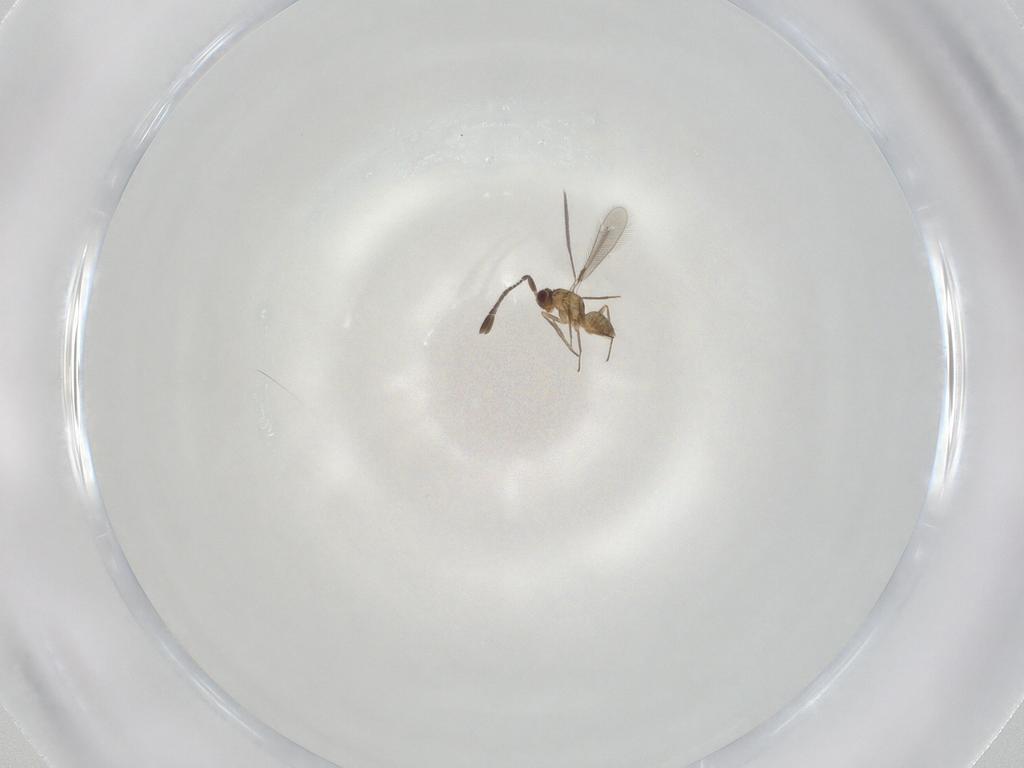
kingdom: Animalia
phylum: Arthropoda
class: Insecta
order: Hymenoptera
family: Mymaridae
